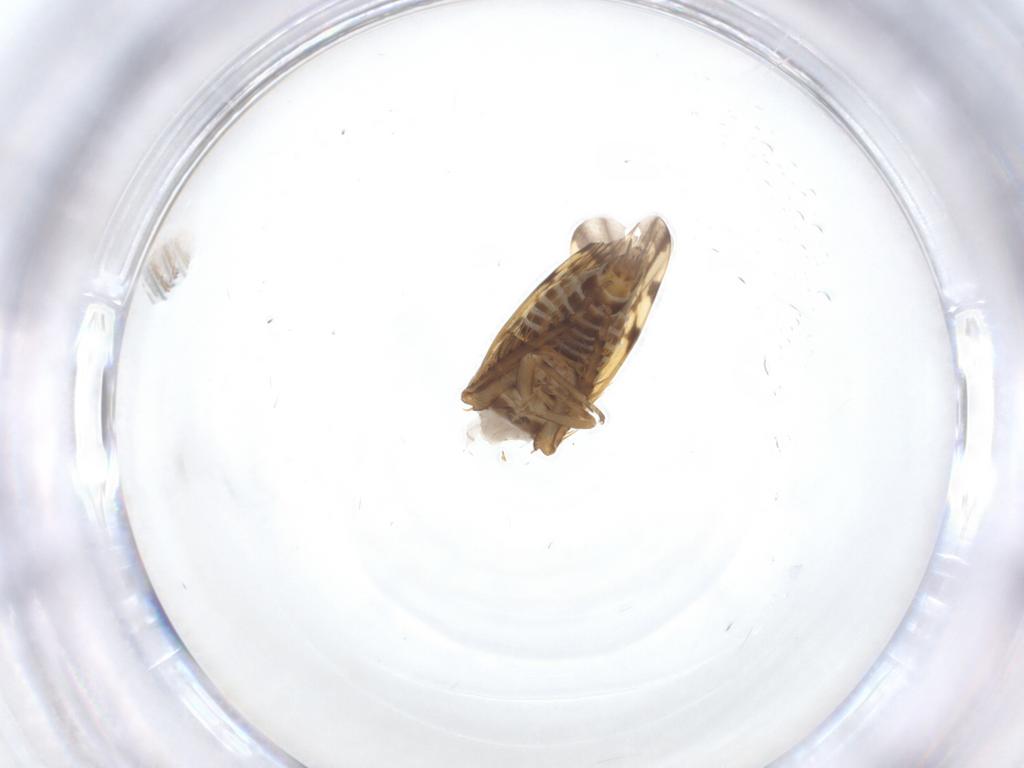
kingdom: Animalia
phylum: Arthropoda
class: Insecta
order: Hemiptera
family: Cicadellidae
